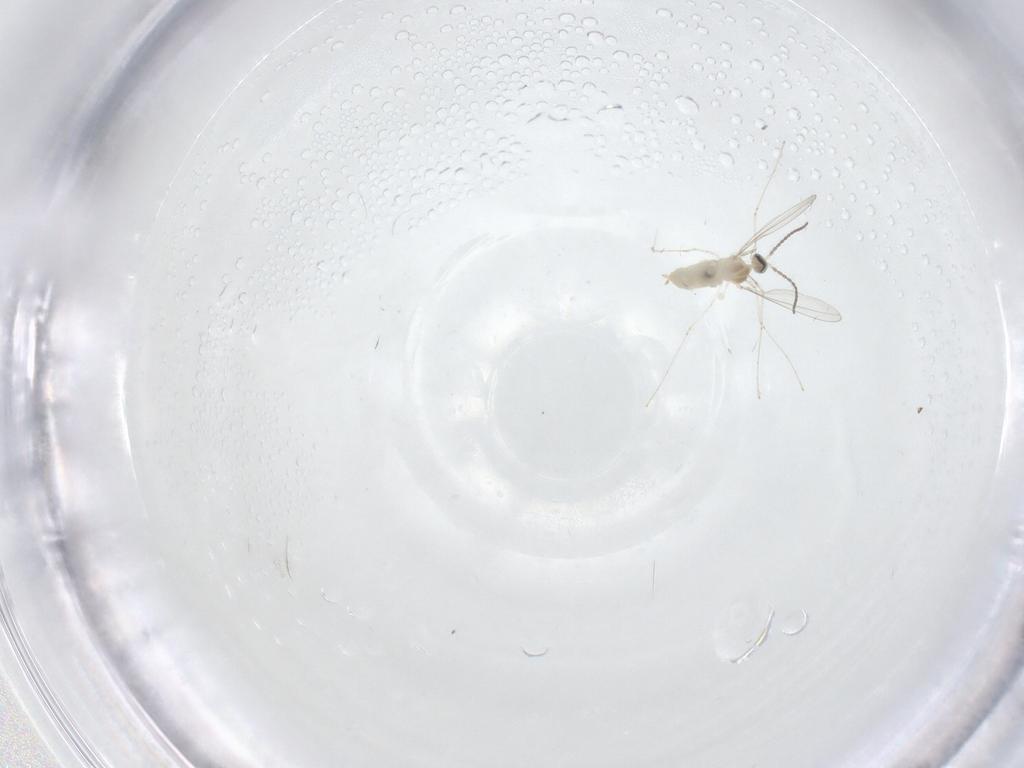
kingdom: Animalia
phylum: Arthropoda
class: Insecta
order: Diptera
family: Cecidomyiidae
